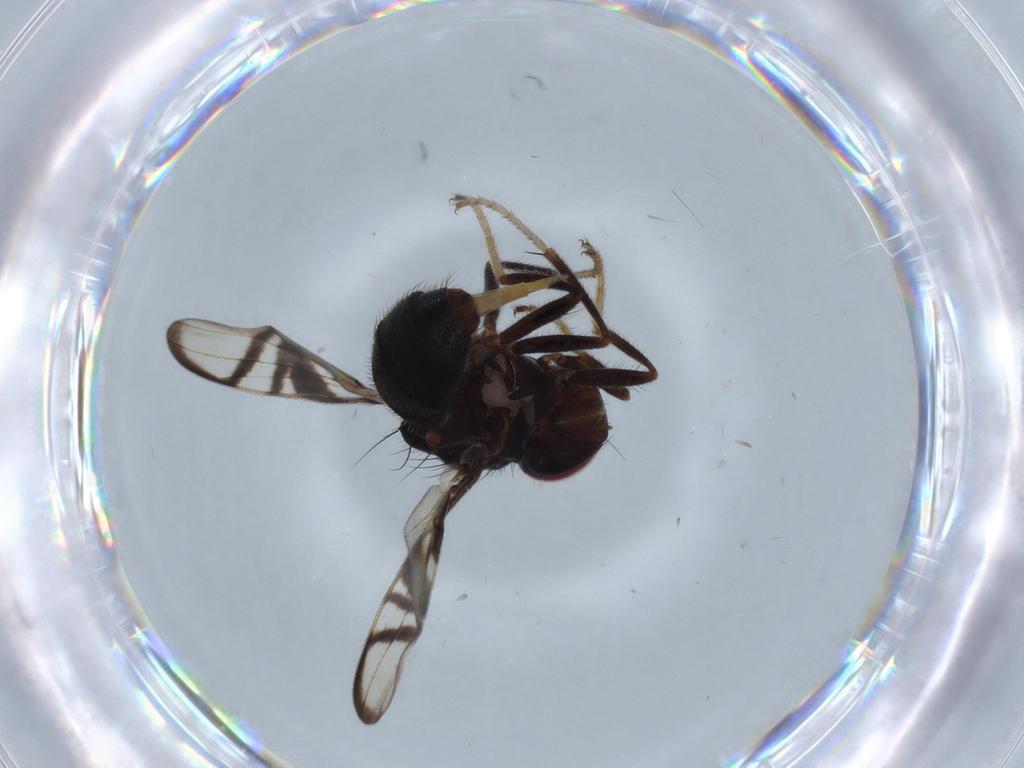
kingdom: Animalia
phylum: Arthropoda
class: Insecta
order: Diptera
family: Platystomatidae
